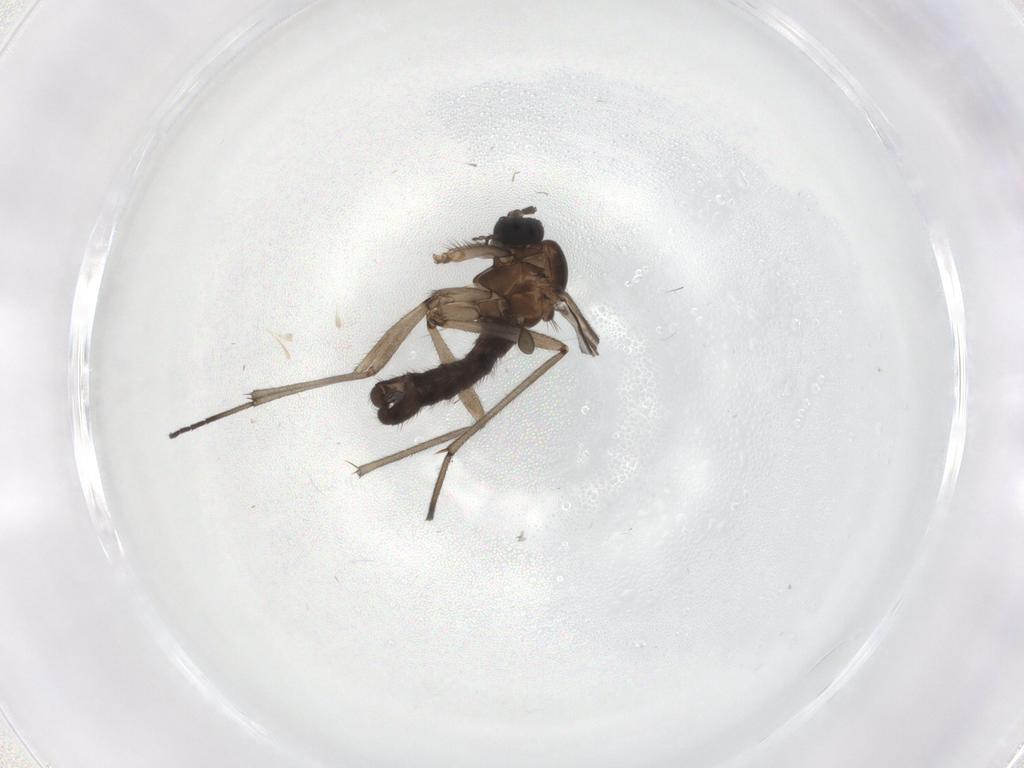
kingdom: Animalia
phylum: Arthropoda
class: Insecta
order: Diptera
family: Sciaridae
